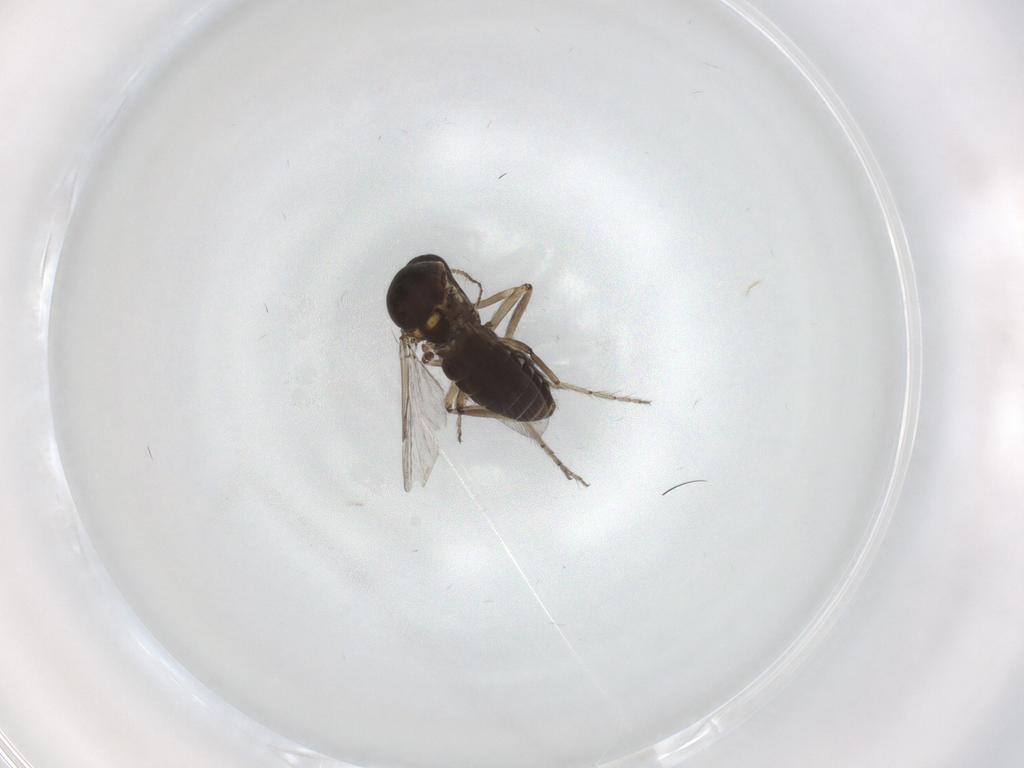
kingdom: Animalia
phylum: Arthropoda
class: Insecta
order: Diptera
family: Ceratopogonidae
